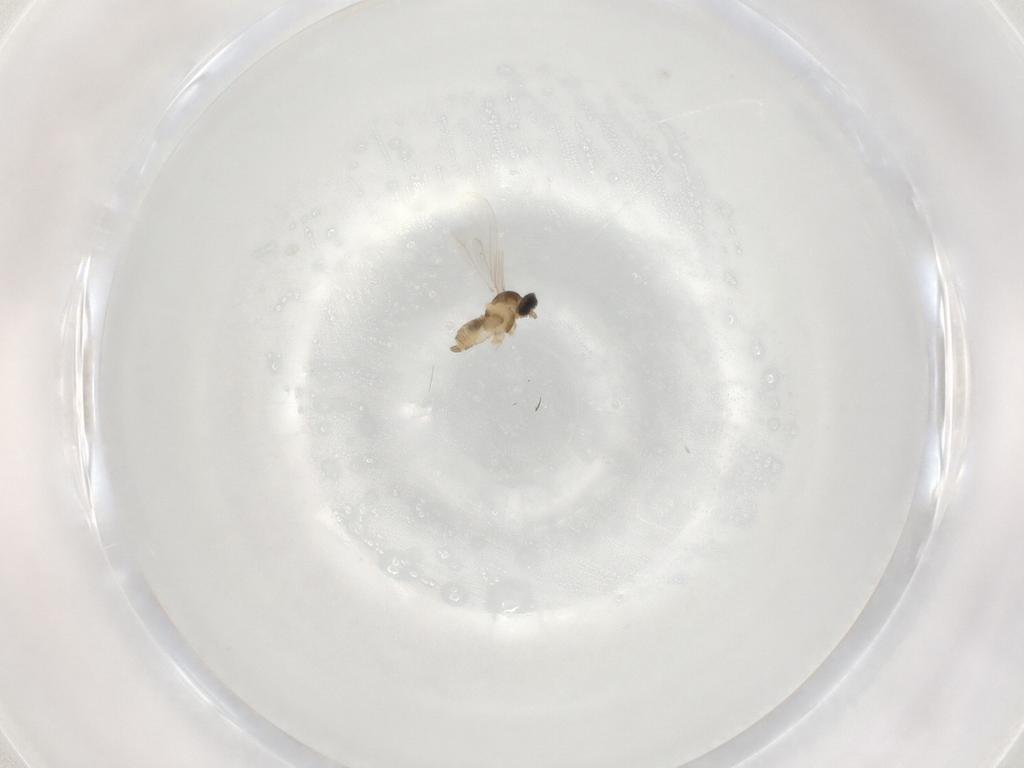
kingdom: Animalia
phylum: Arthropoda
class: Insecta
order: Diptera
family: Cecidomyiidae
